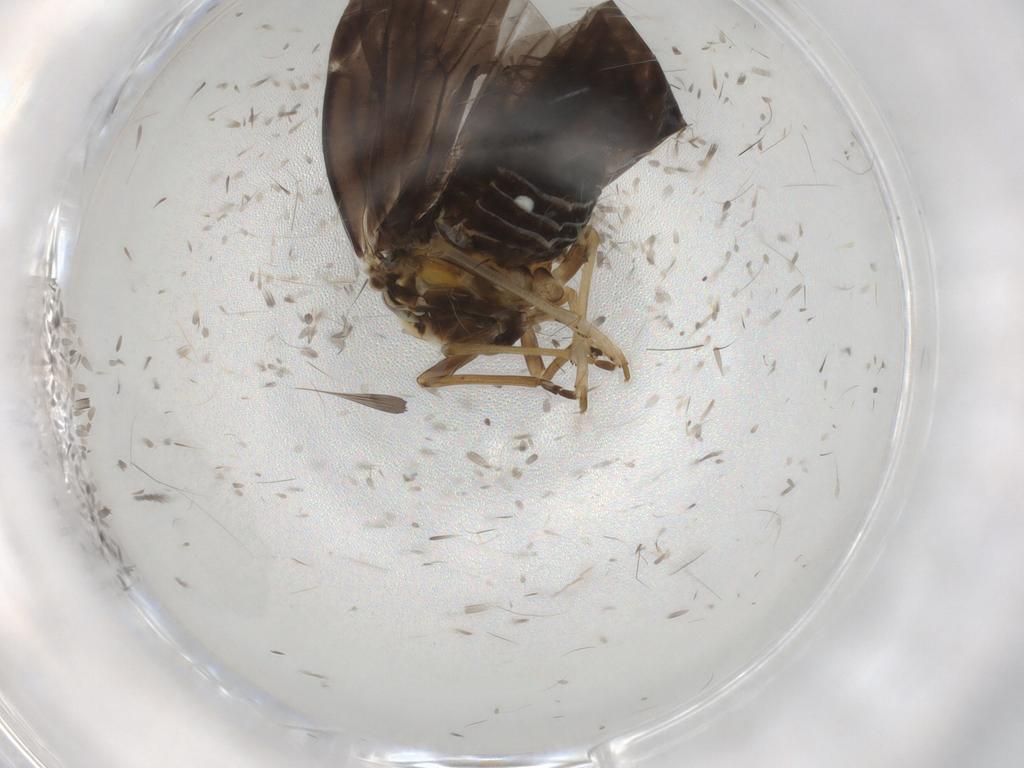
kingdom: Animalia
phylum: Arthropoda
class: Insecta
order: Hemiptera
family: Derbidae
